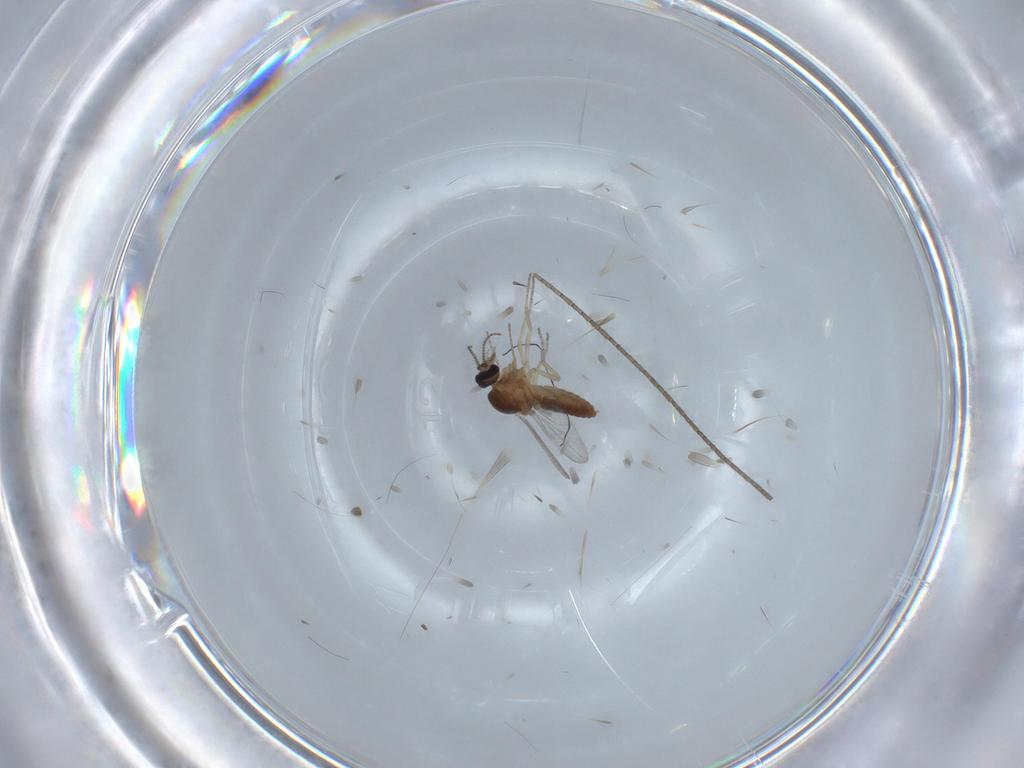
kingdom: Animalia
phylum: Arthropoda
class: Insecta
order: Diptera
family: Ceratopogonidae
